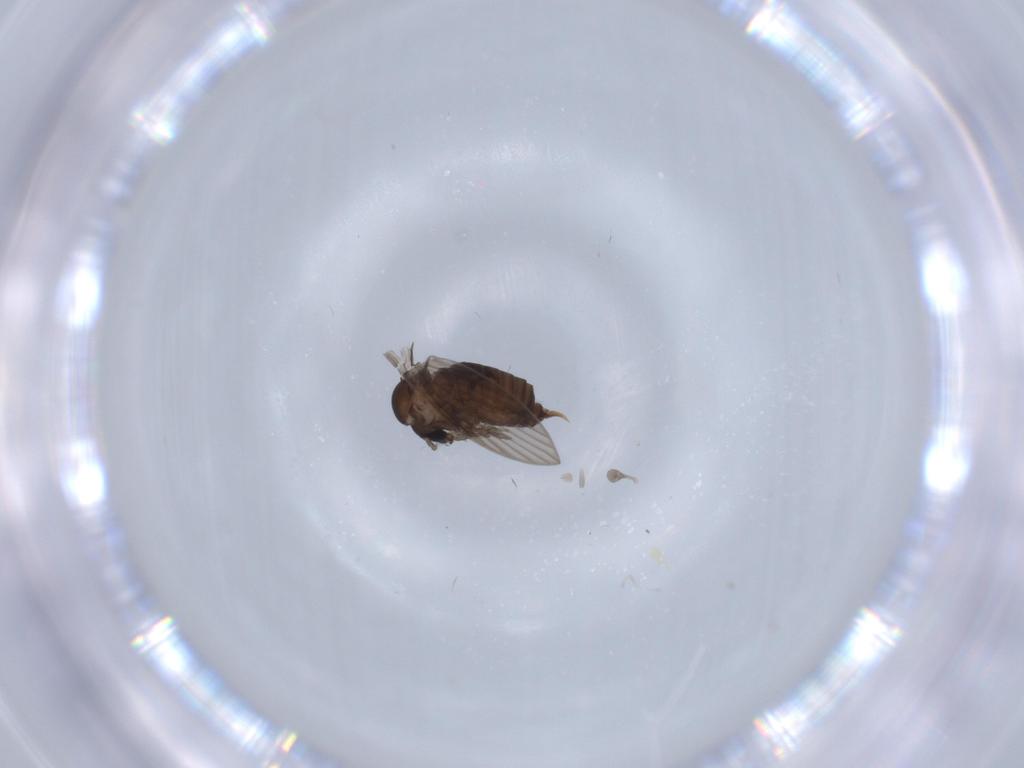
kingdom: Animalia
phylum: Arthropoda
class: Insecta
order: Diptera
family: Psychodidae
